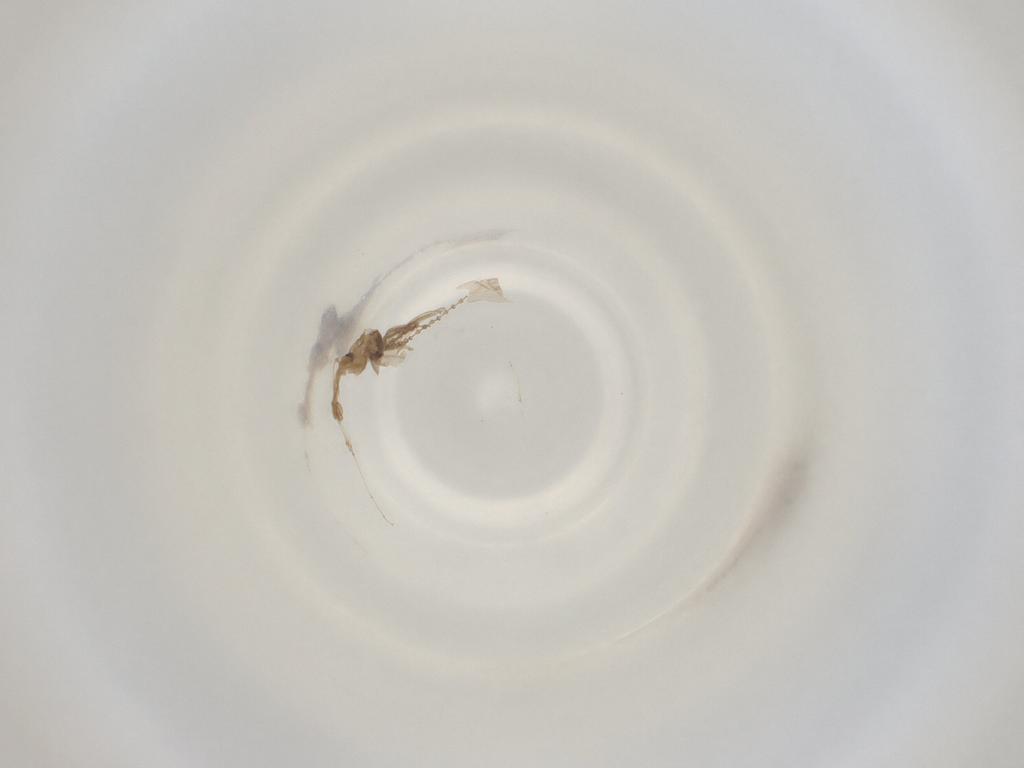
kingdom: Animalia
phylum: Arthropoda
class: Insecta
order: Diptera
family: Cecidomyiidae
